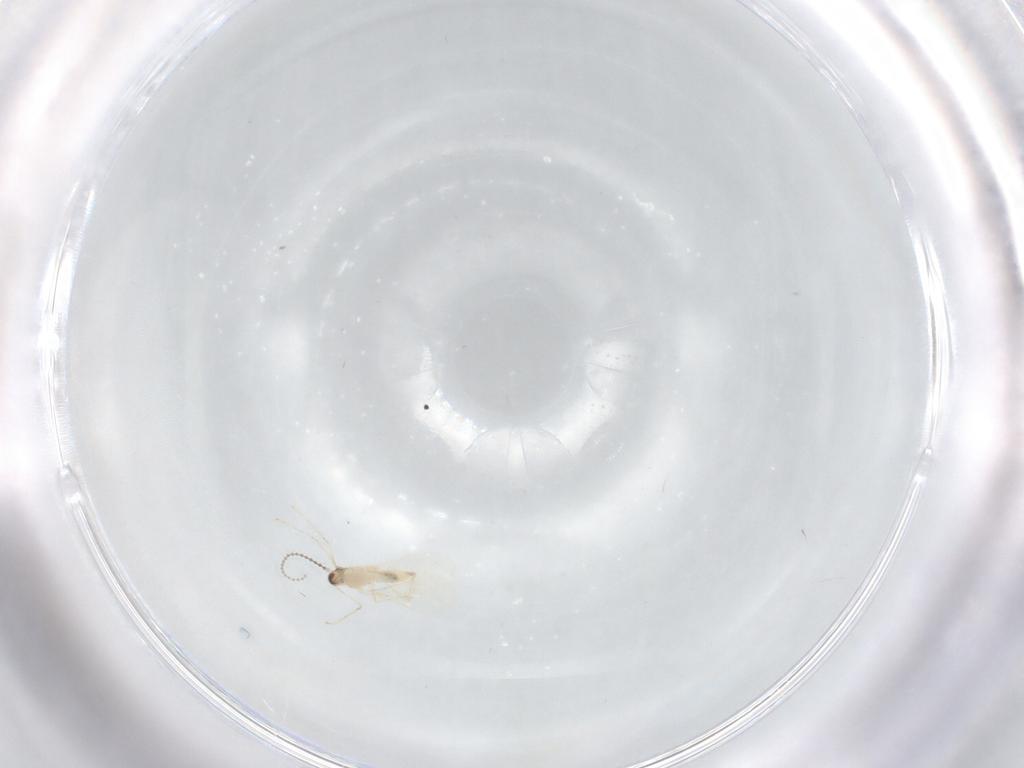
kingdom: Animalia
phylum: Arthropoda
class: Insecta
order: Diptera
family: Cecidomyiidae
